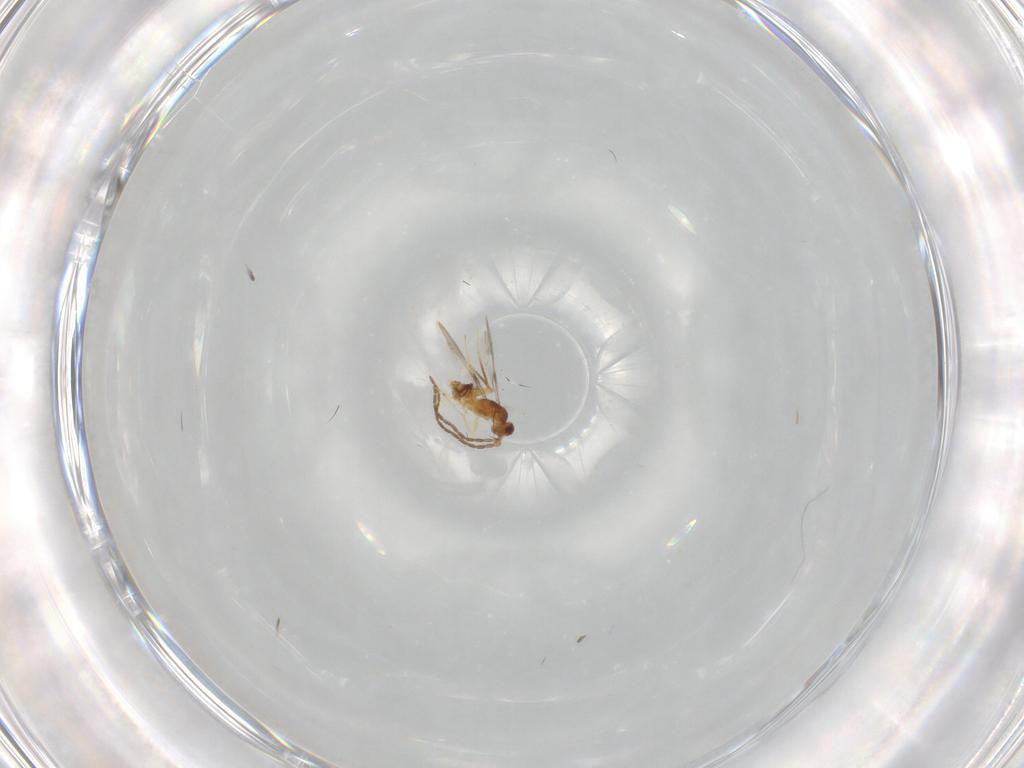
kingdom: Animalia
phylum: Arthropoda
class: Insecta
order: Hymenoptera
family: Mymaridae
